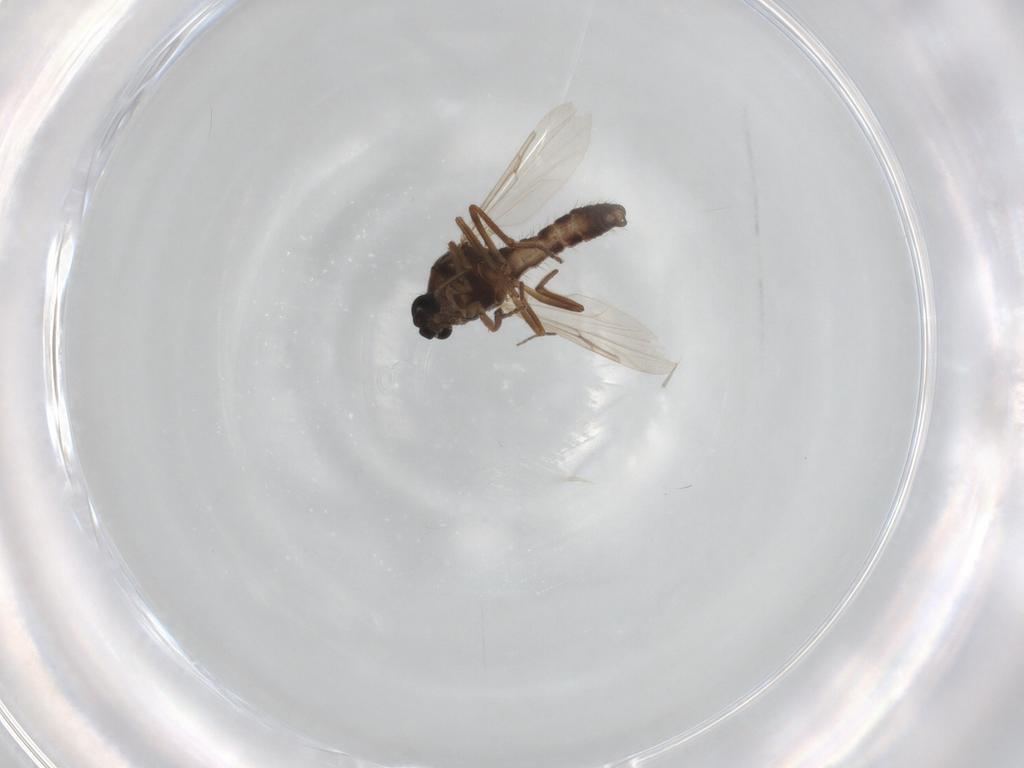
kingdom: Animalia
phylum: Arthropoda
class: Insecta
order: Diptera
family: Ceratopogonidae
